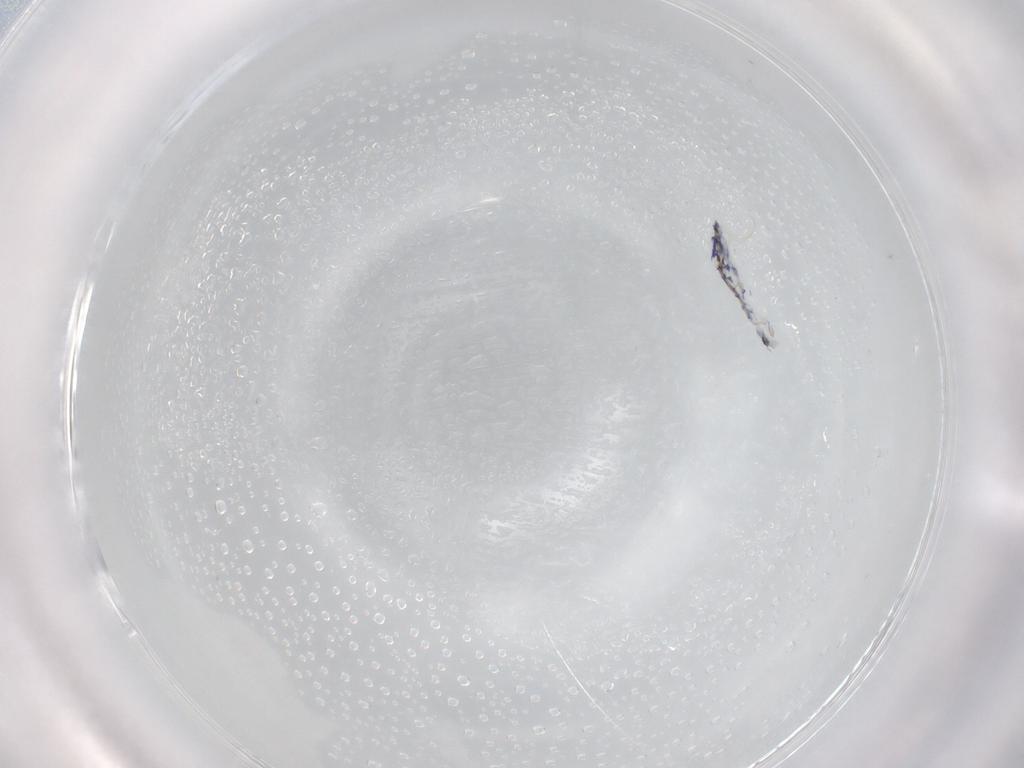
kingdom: Animalia
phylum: Arthropoda
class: Collembola
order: Entomobryomorpha
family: Entomobryidae
